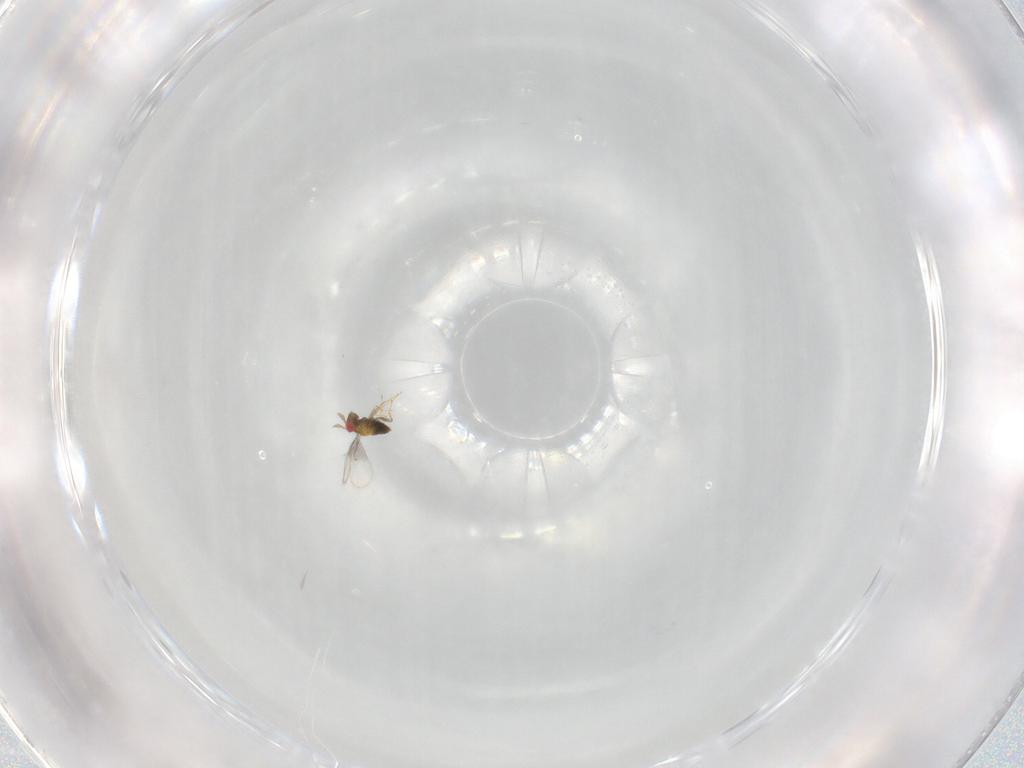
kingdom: Animalia
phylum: Arthropoda
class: Insecta
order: Hymenoptera
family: Trichogrammatidae
